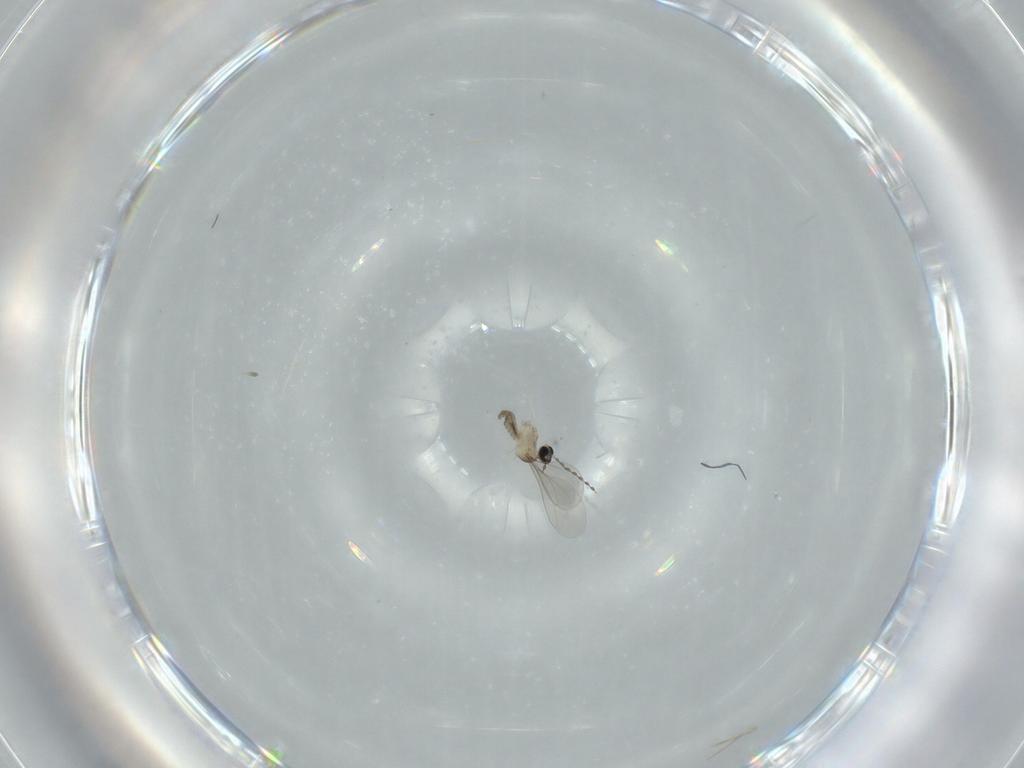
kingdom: Animalia
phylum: Arthropoda
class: Insecta
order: Diptera
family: Cecidomyiidae
